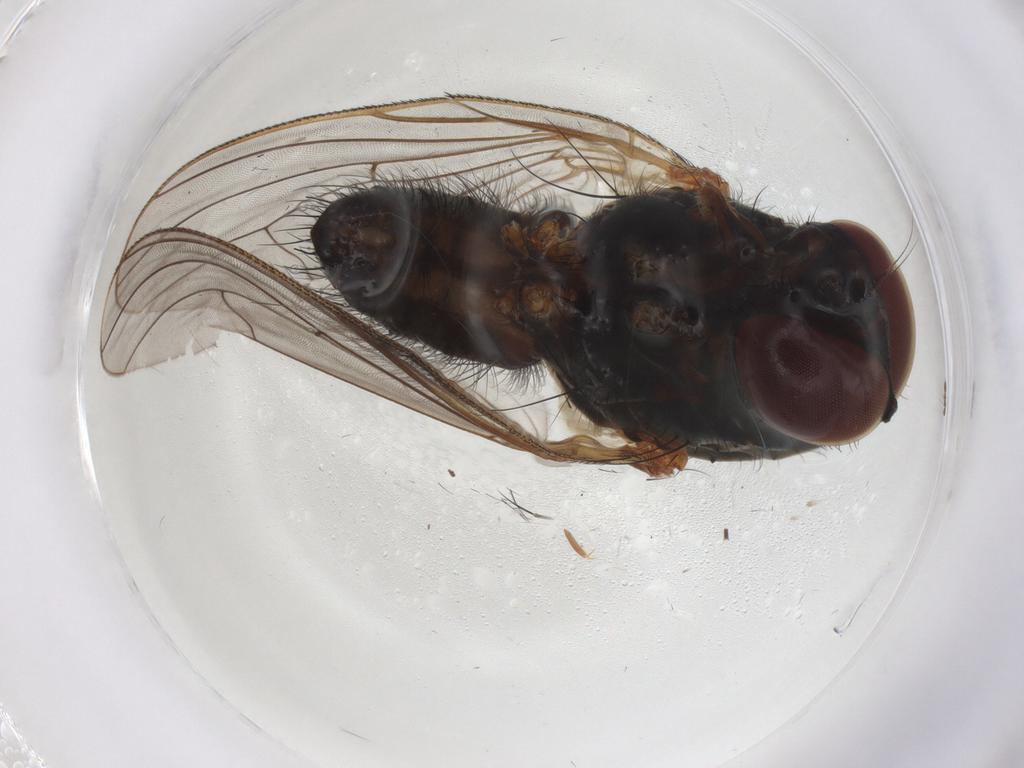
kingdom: Animalia
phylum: Arthropoda
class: Insecta
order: Diptera
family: Anthomyiidae
